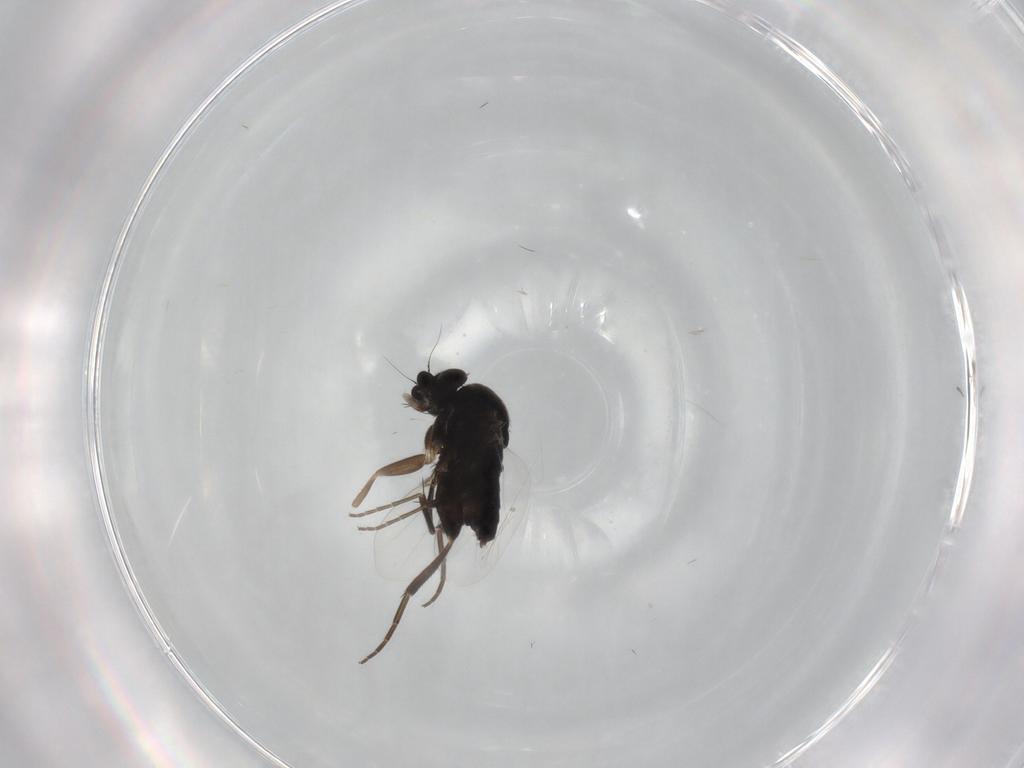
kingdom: Animalia
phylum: Arthropoda
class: Insecta
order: Diptera
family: Phoridae
